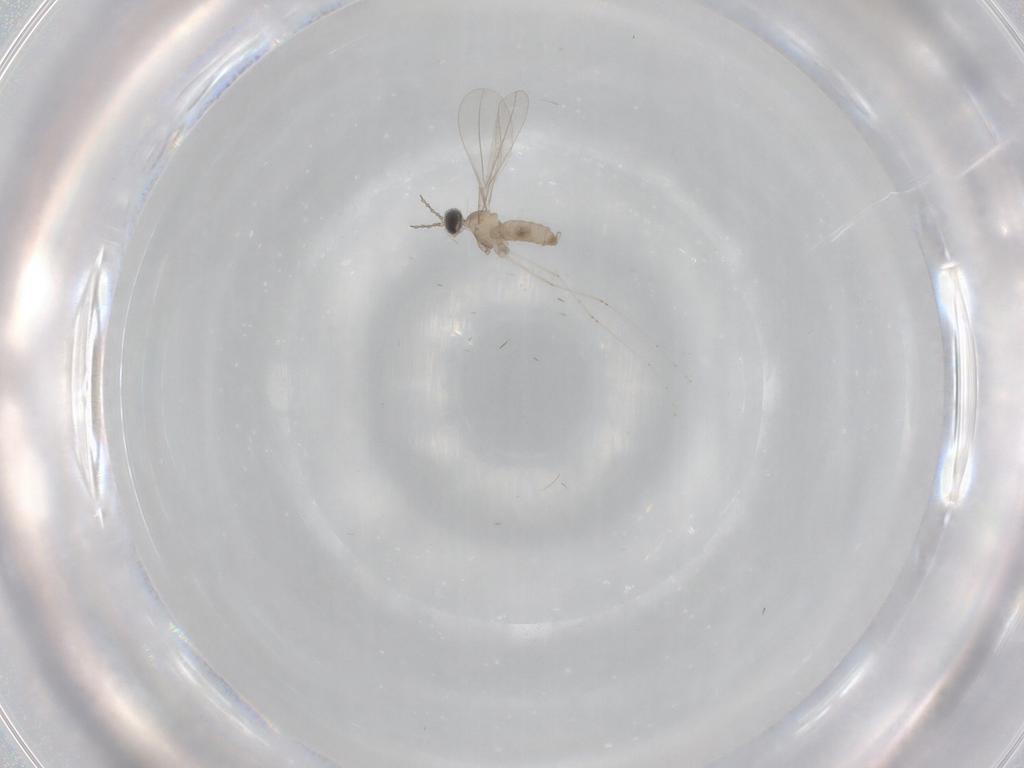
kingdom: Animalia
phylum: Arthropoda
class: Insecta
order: Diptera
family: Cecidomyiidae
